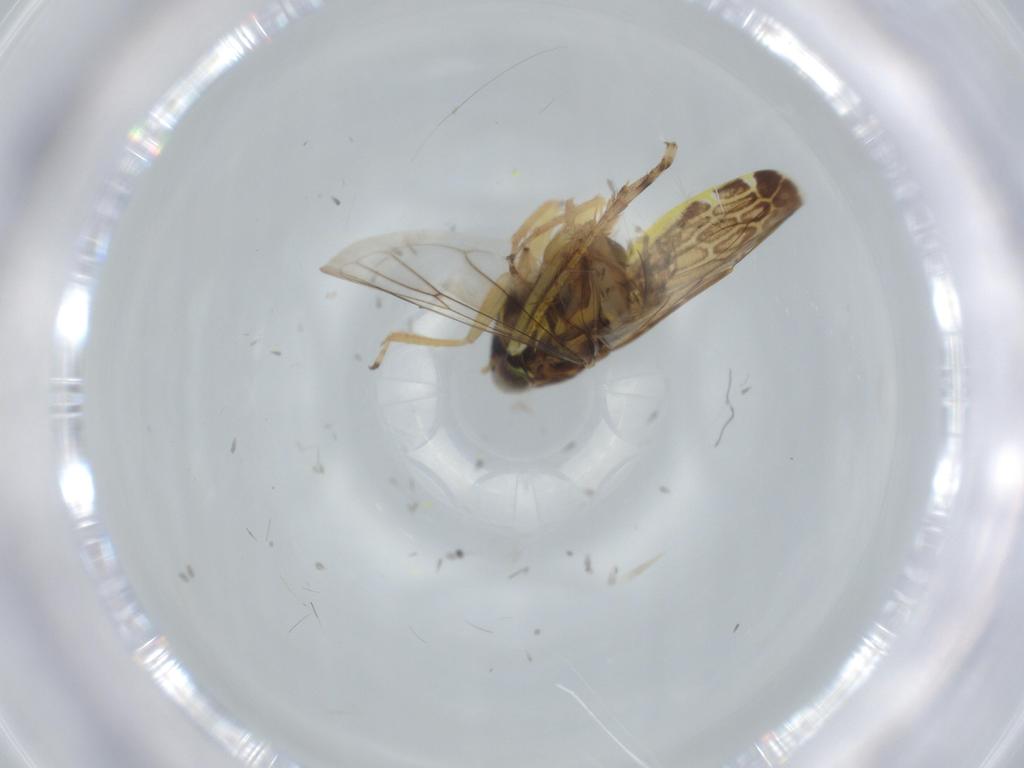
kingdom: Animalia
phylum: Arthropoda
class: Insecta
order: Hemiptera
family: Cicadellidae
